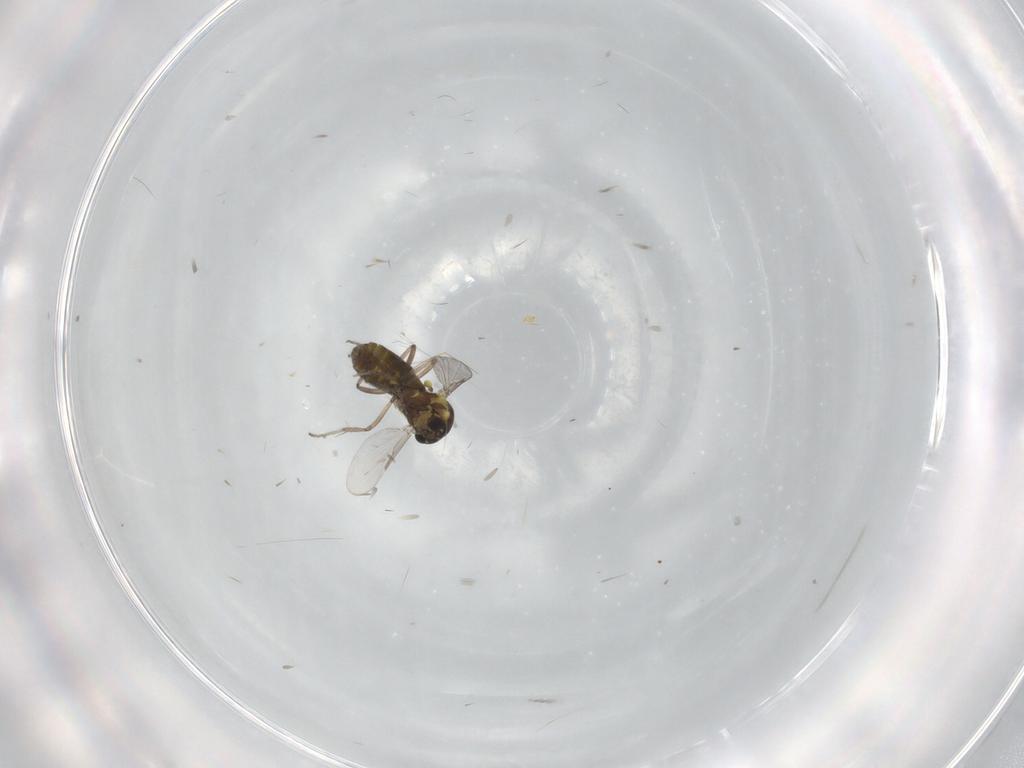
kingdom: Animalia
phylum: Arthropoda
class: Insecta
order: Diptera
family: Ceratopogonidae
